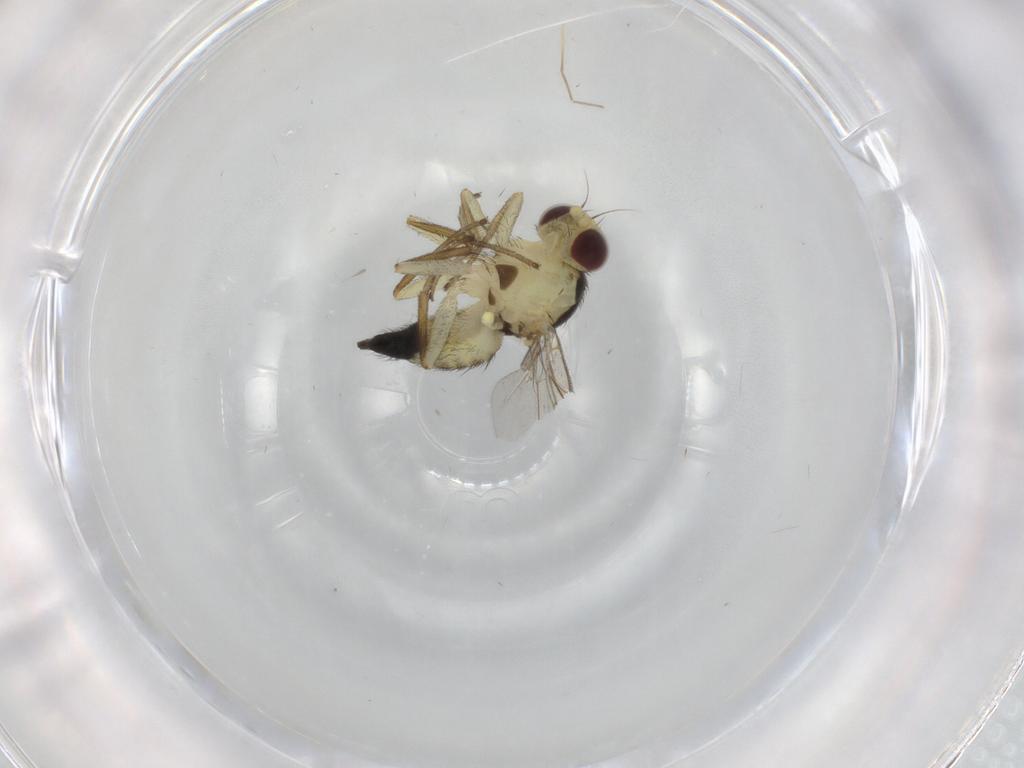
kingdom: Animalia
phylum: Arthropoda
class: Insecta
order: Diptera
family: Agromyzidae
